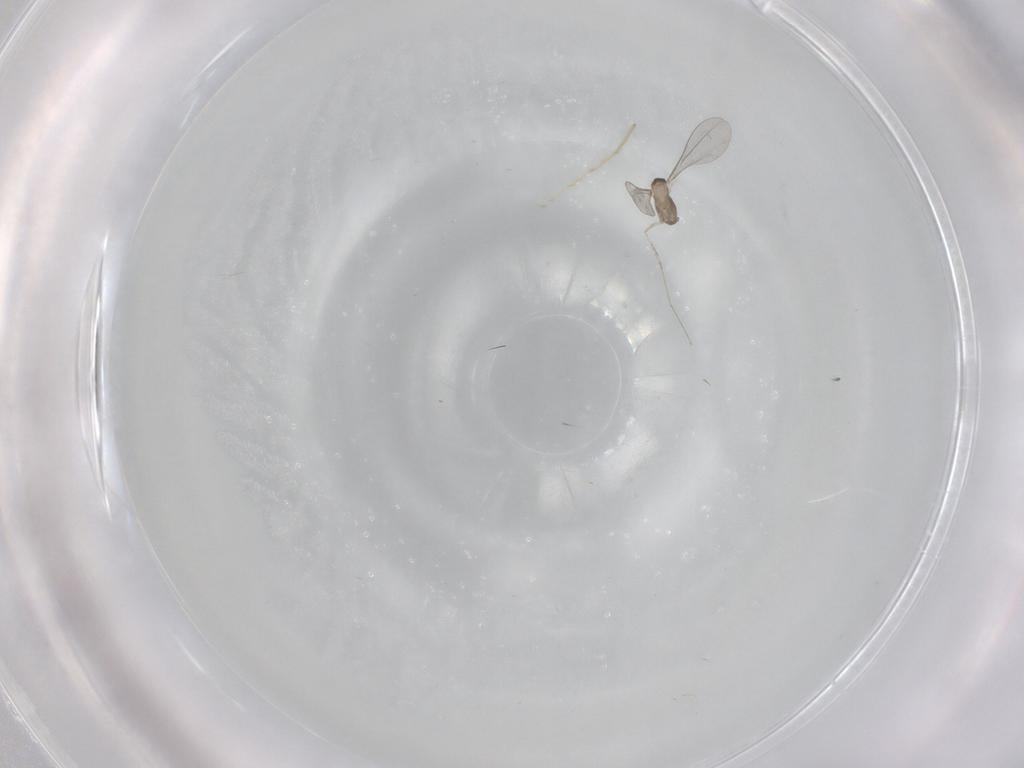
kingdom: Animalia
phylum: Arthropoda
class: Insecta
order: Diptera
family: Cecidomyiidae
